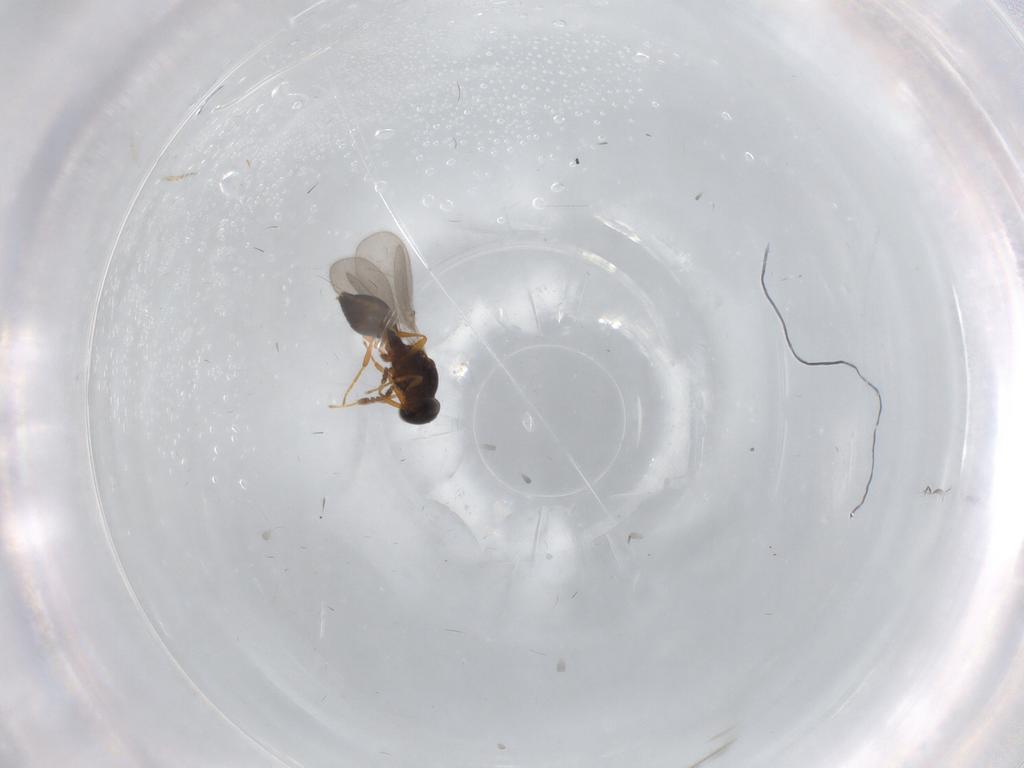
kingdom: Animalia
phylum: Arthropoda
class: Insecta
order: Hymenoptera
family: Platygastridae
